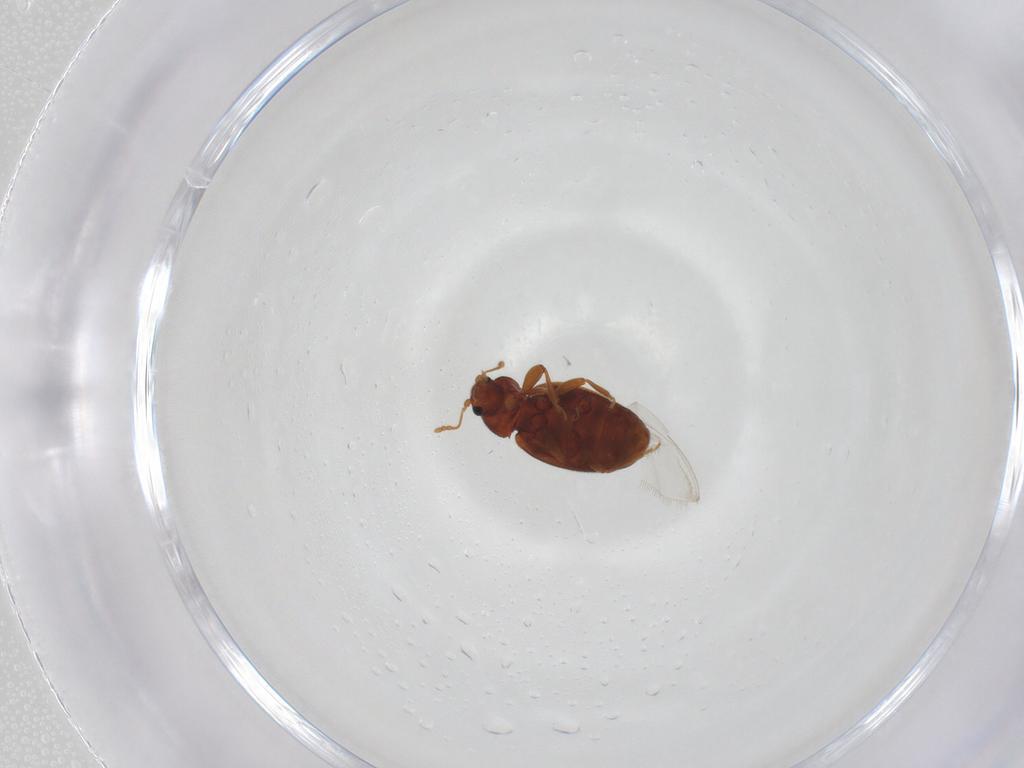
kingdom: Animalia
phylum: Arthropoda
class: Insecta
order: Coleoptera
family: Latridiidae
